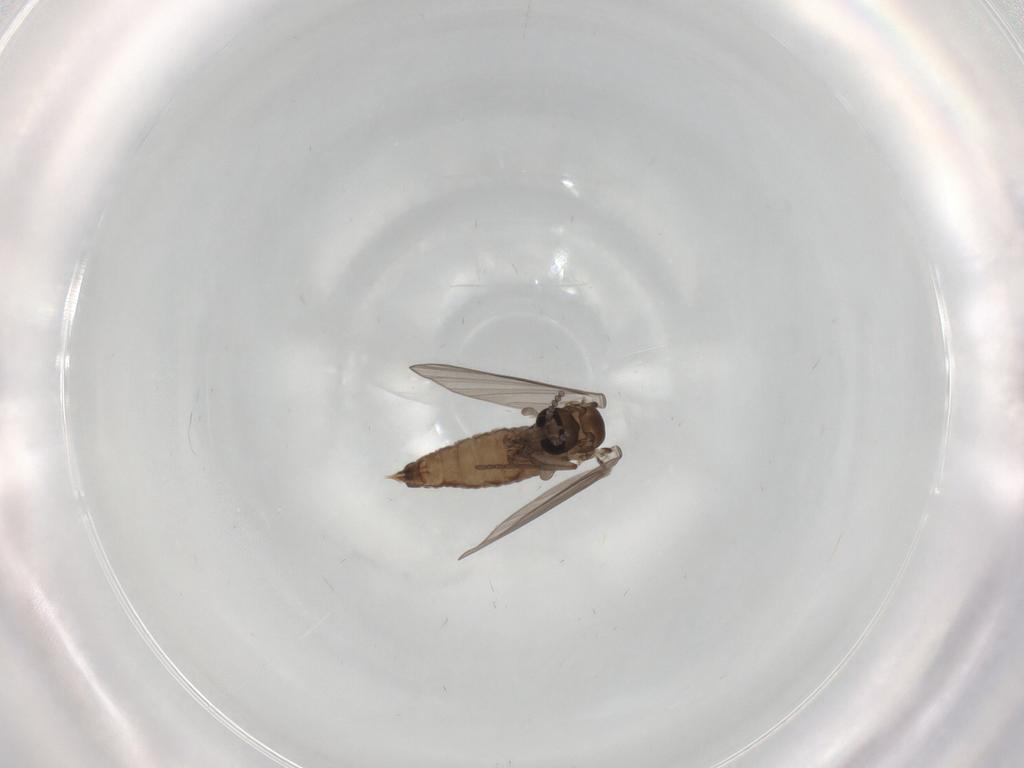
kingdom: Animalia
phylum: Arthropoda
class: Insecta
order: Diptera
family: Psychodidae
